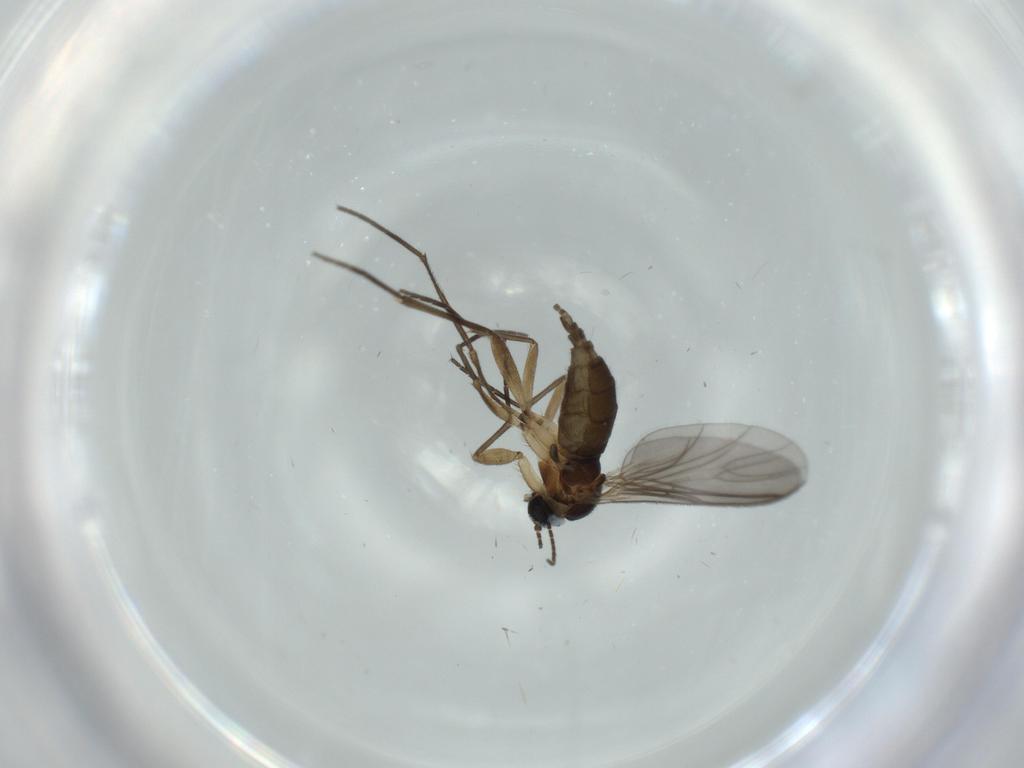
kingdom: Animalia
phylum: Arthropoda
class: Insecta
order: Diptera
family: Sciaridae
